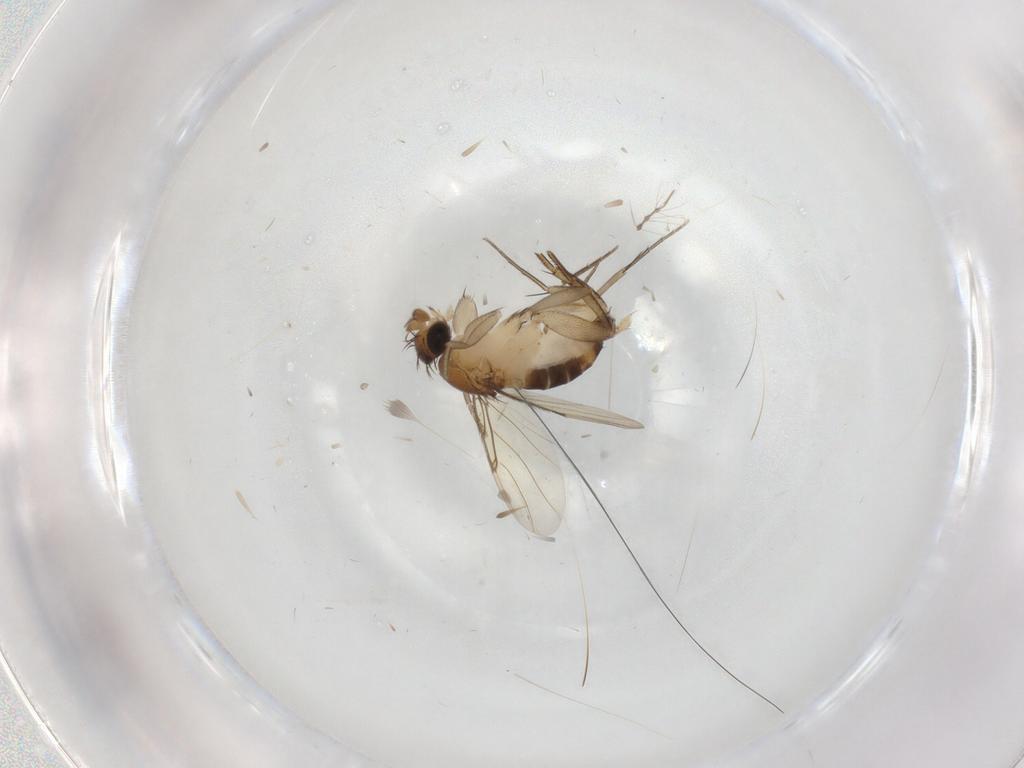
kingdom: Animalia
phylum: Arthropoda
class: Insecta
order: Diptera
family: Phoridae
